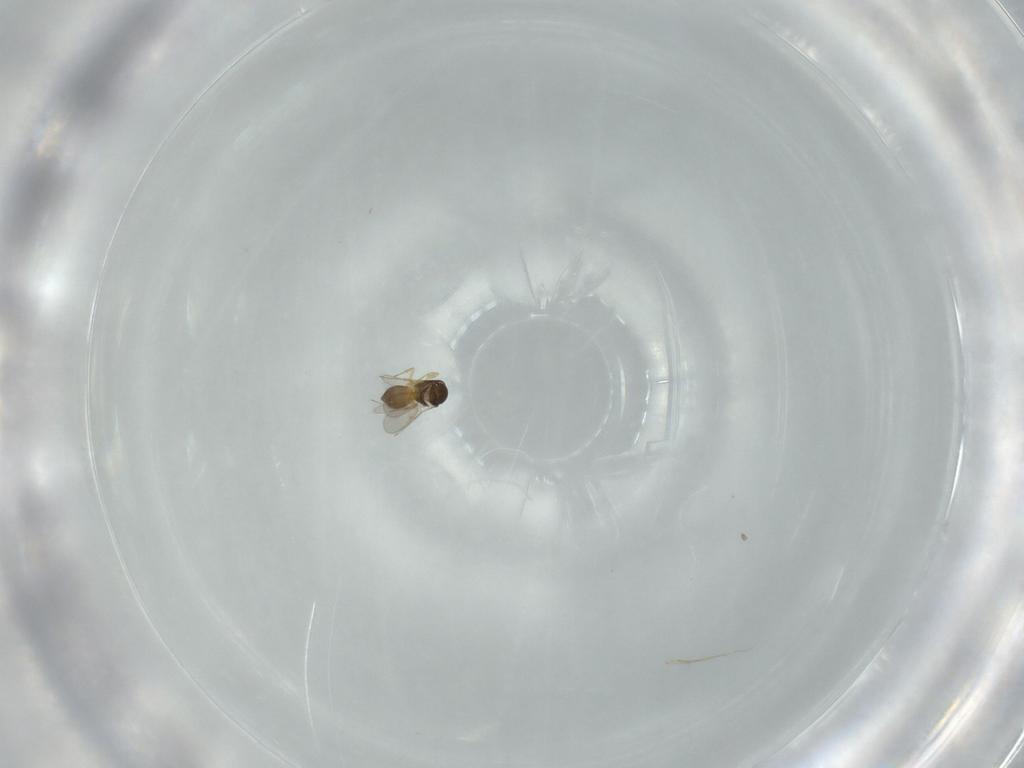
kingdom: Animalia
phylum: Arthropoda
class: Insecta
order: Hymenoptera
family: Scelionidae
